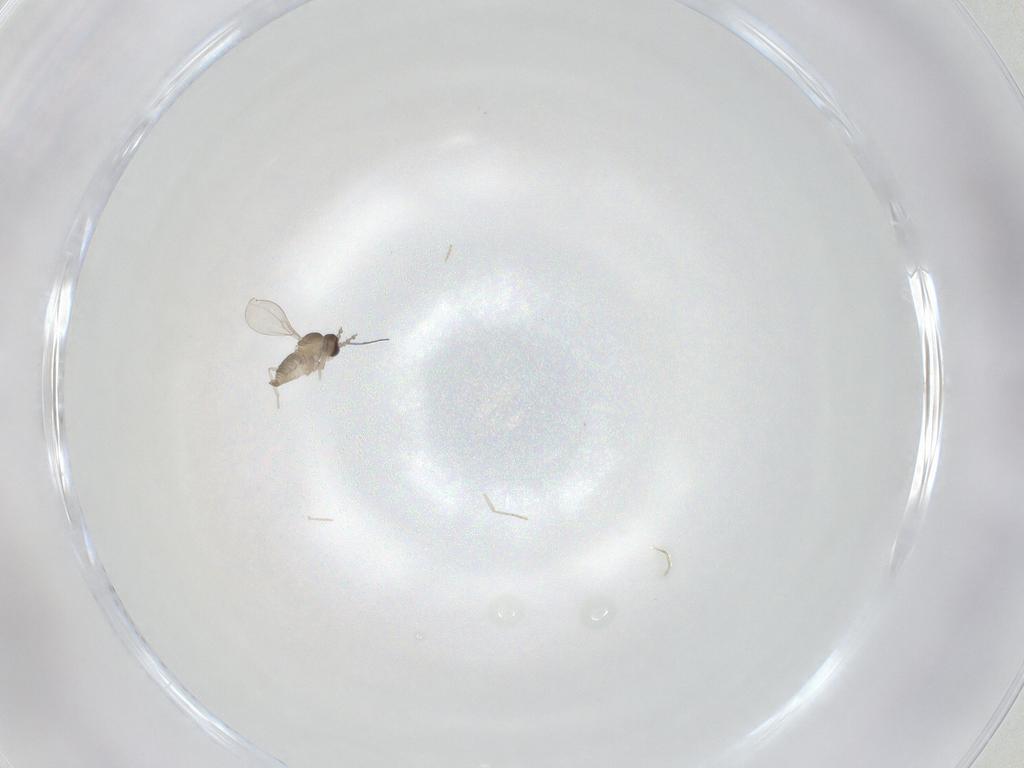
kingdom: Animalia
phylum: Arthropoda
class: Insecta
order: Diptera
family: Cecidomyiidae
